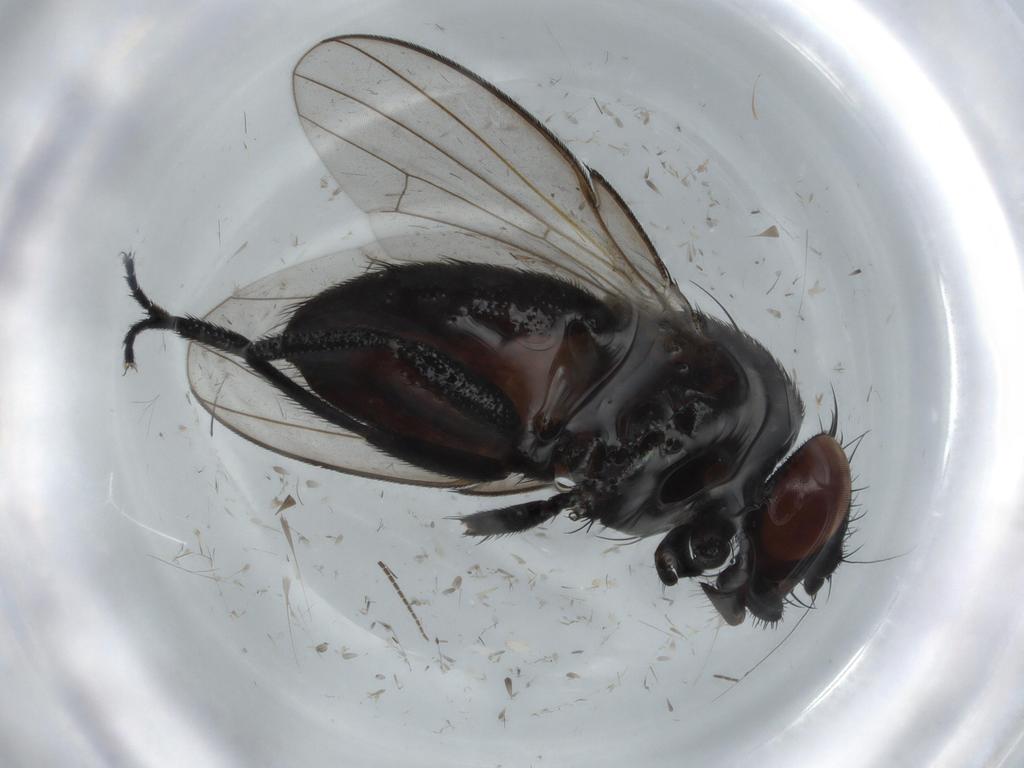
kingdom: Animalia
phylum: Arthropoda
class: Insecta
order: Diptera
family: Milichiidae
